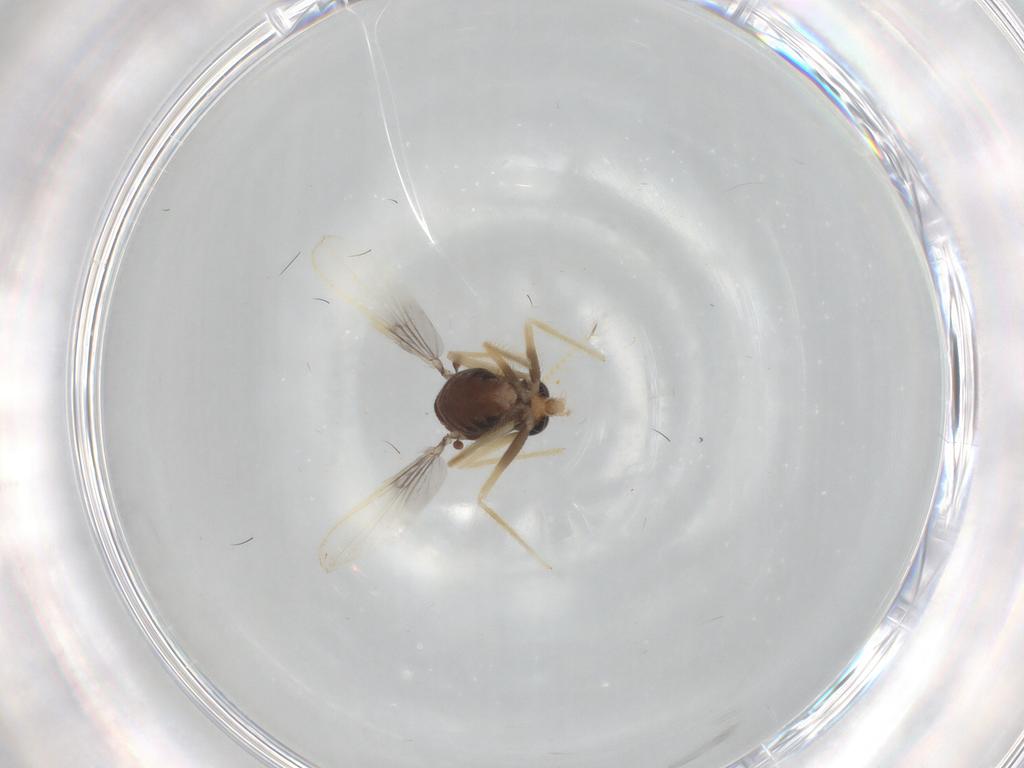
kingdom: Animalia
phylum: Arthropoda
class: Insecta
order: Diptera
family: Chironomidae
